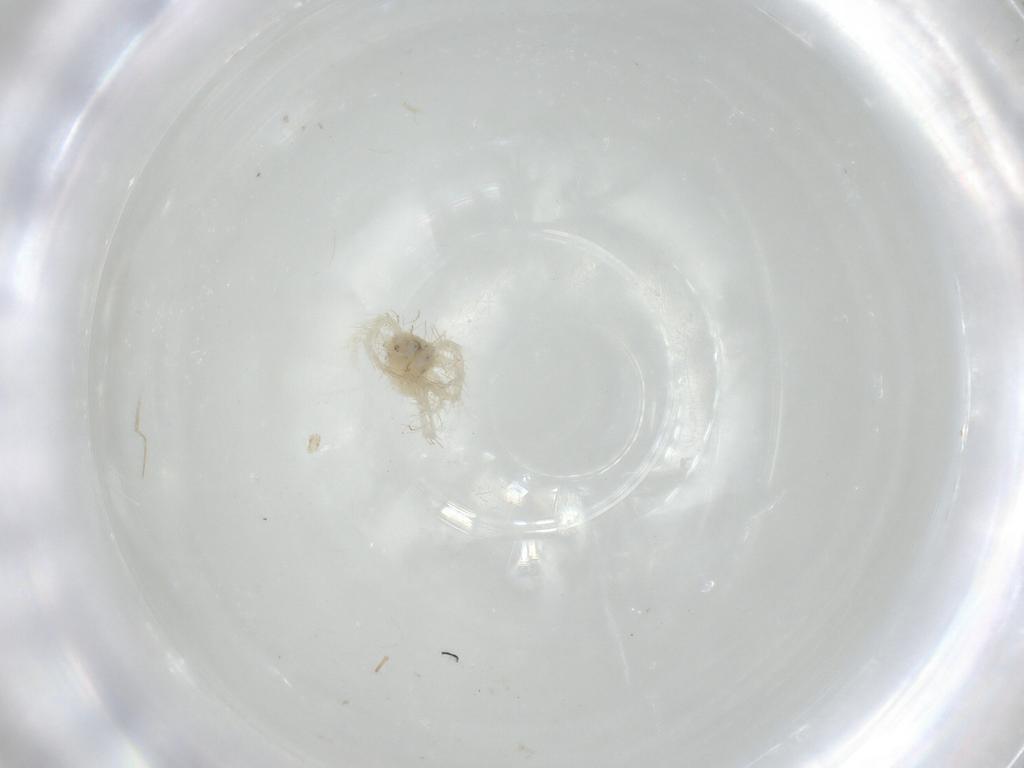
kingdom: Animalia
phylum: Arthropoda
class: Arachnida
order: Trombidiformes
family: Anystidae
